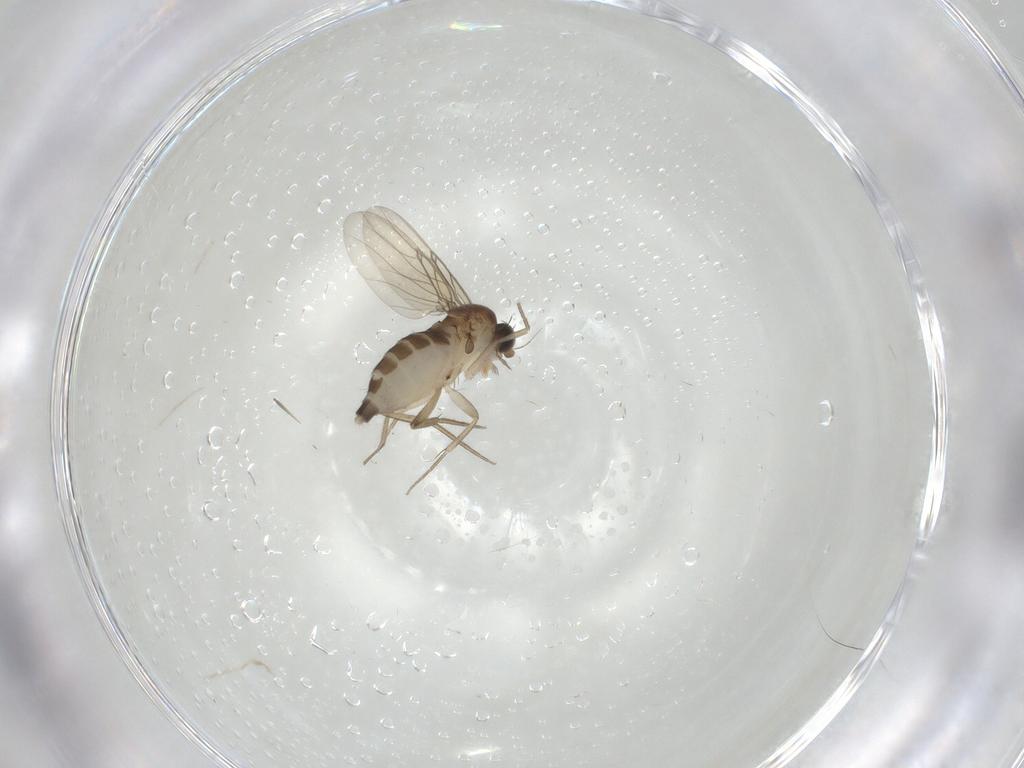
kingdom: Animalia
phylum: Arthropoda
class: Insecta
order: Diptera
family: Phoridae
